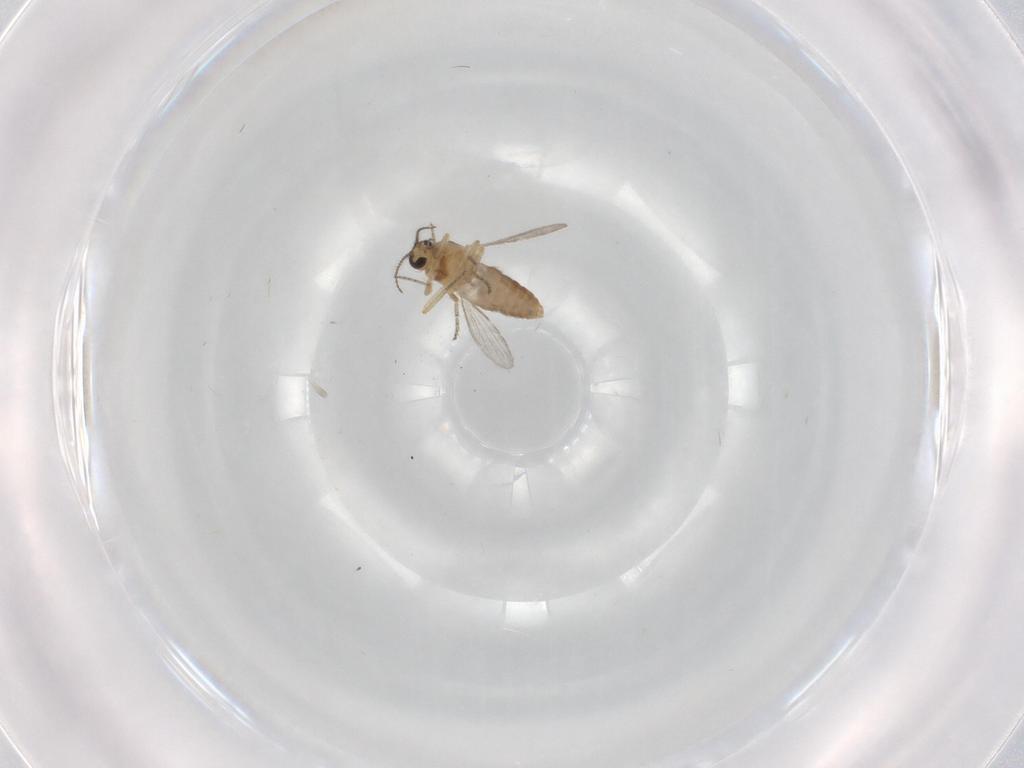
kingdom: Animalia
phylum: Arthropoda
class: Insecta
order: Diptera
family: Ceratopogonidae
